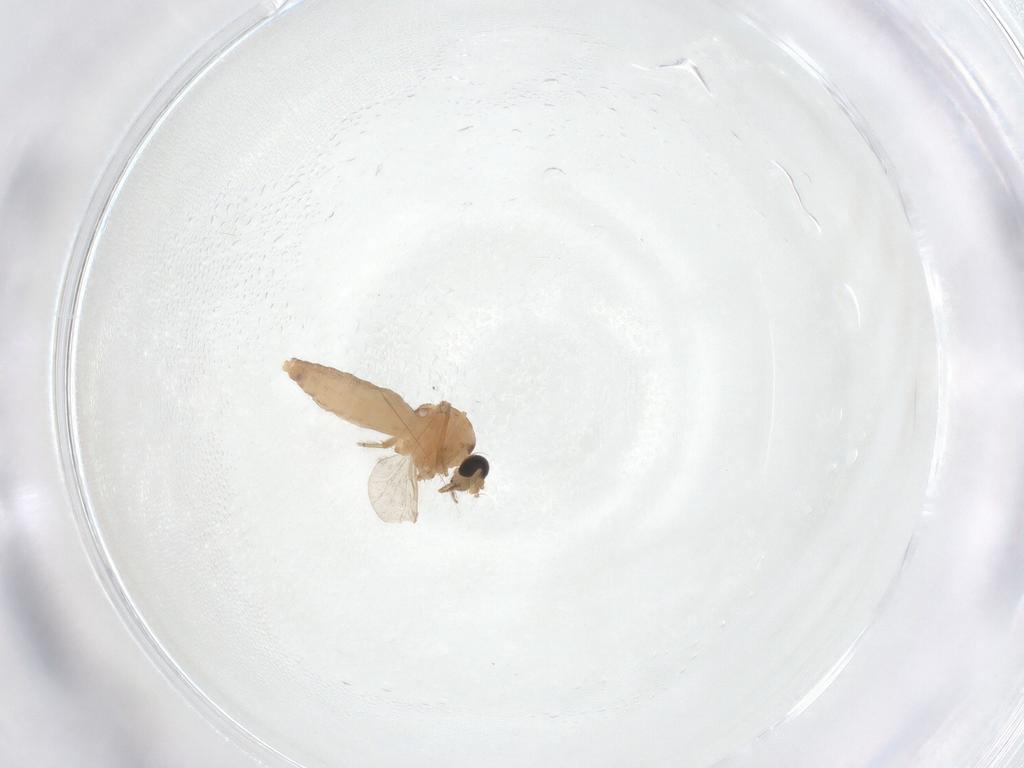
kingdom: Animalia
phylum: Arthropoda
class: Insecta
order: Diptera
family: Ceratopogonidae
